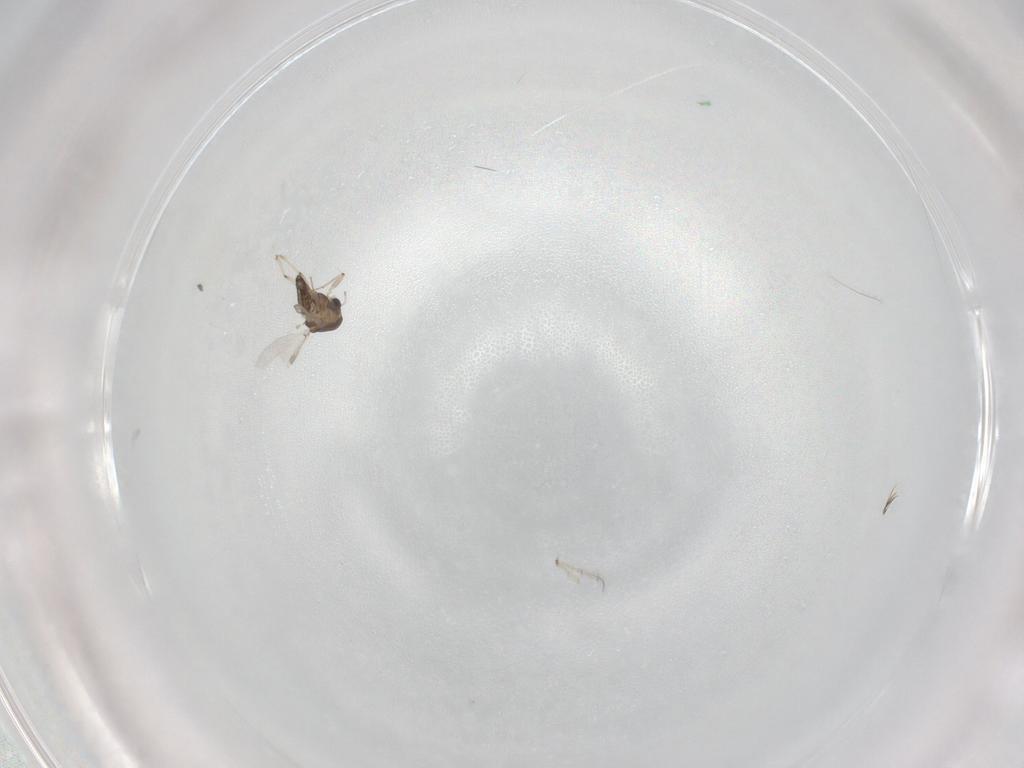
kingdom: Animalia
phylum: Arthropoda
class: Insecta
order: Diptera
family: Chironomidae
